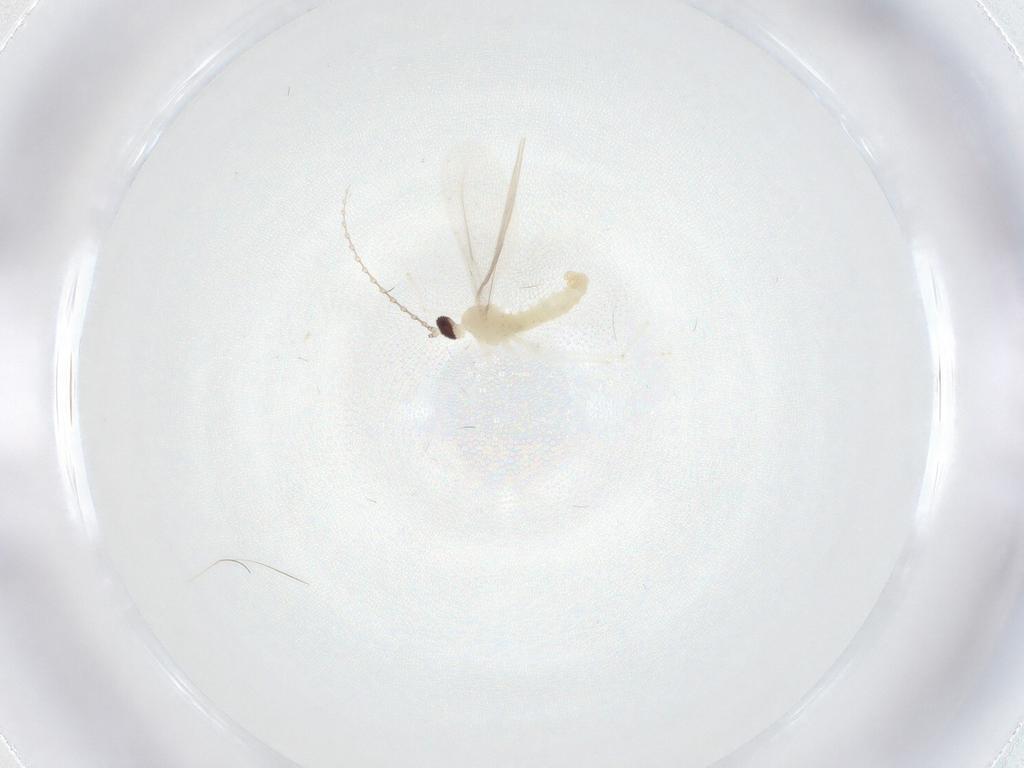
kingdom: Animalia
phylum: Arthropoda
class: Insecta
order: Diptera
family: Cecidomyiidae
